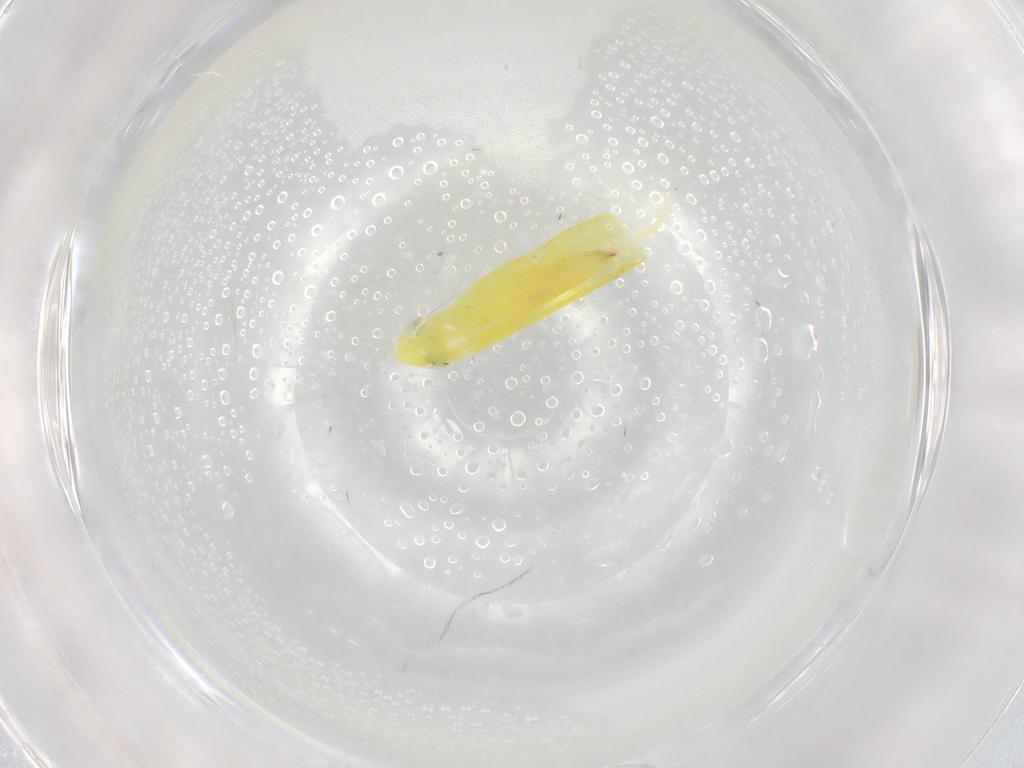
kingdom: Animalia
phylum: Arthropoda
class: Insecta
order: Hemiptera
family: Cicadellidae
